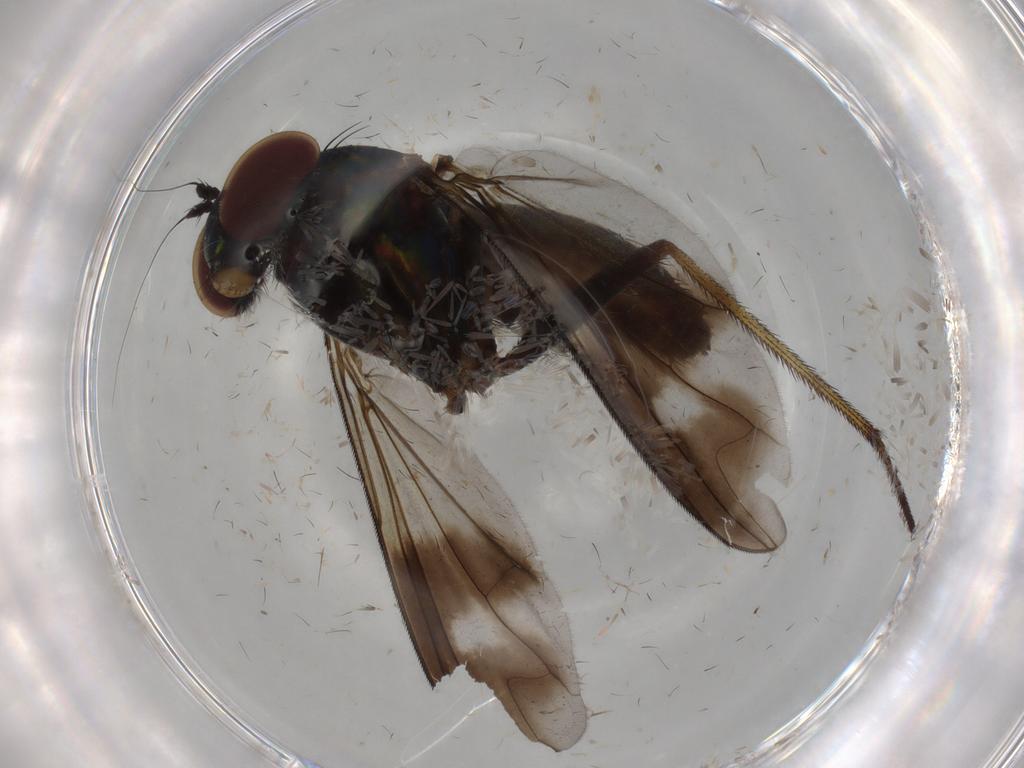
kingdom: Animalia
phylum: Arthropoda
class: Insecta
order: Diptera
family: Dolichopodidae
